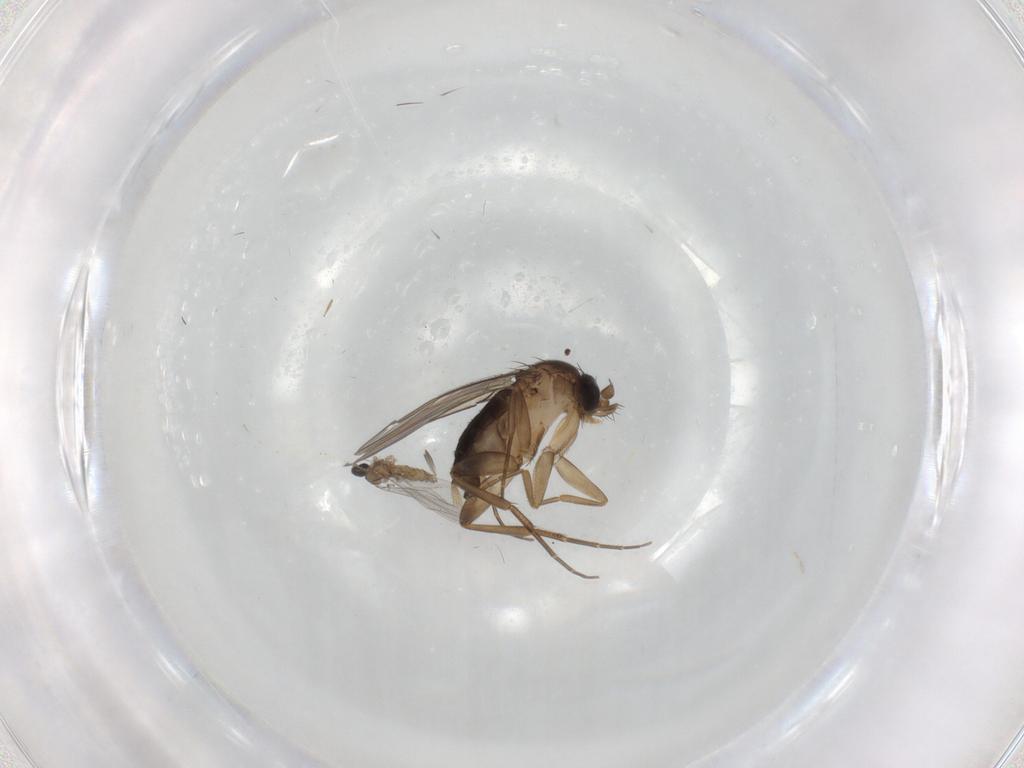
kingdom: Animalia
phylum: Arthropoda
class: Insecta
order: Diptera
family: Phoridae
